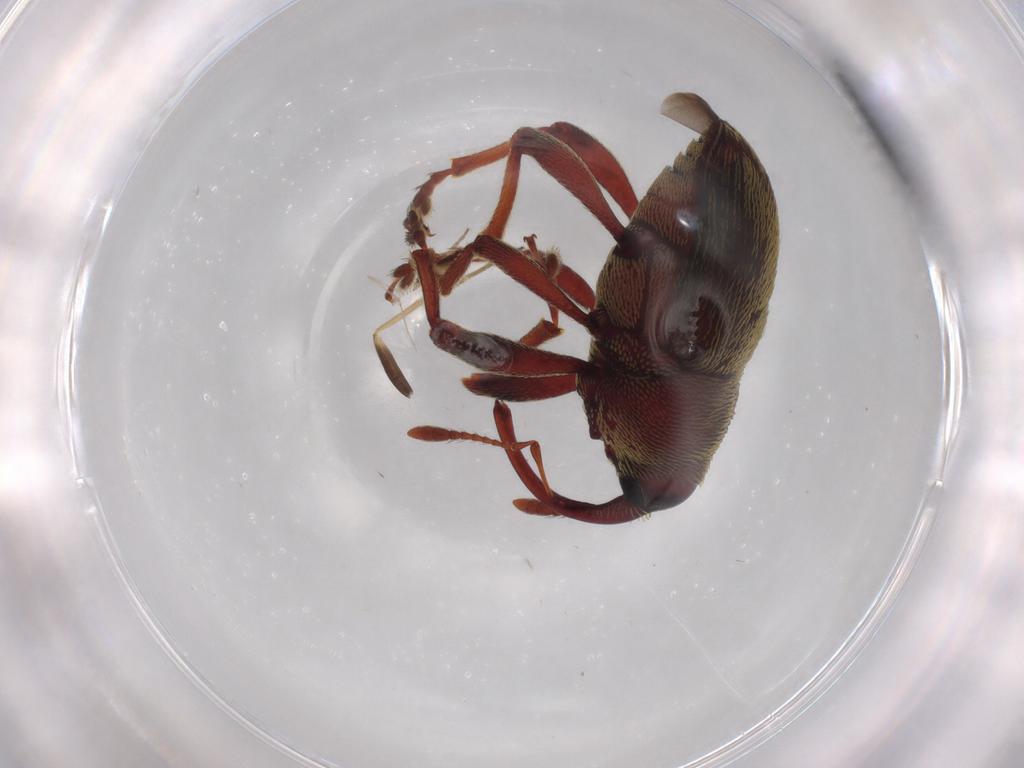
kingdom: Animalia
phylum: Arthropoda
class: Insecta
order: Coleoptera
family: Curculionidae
